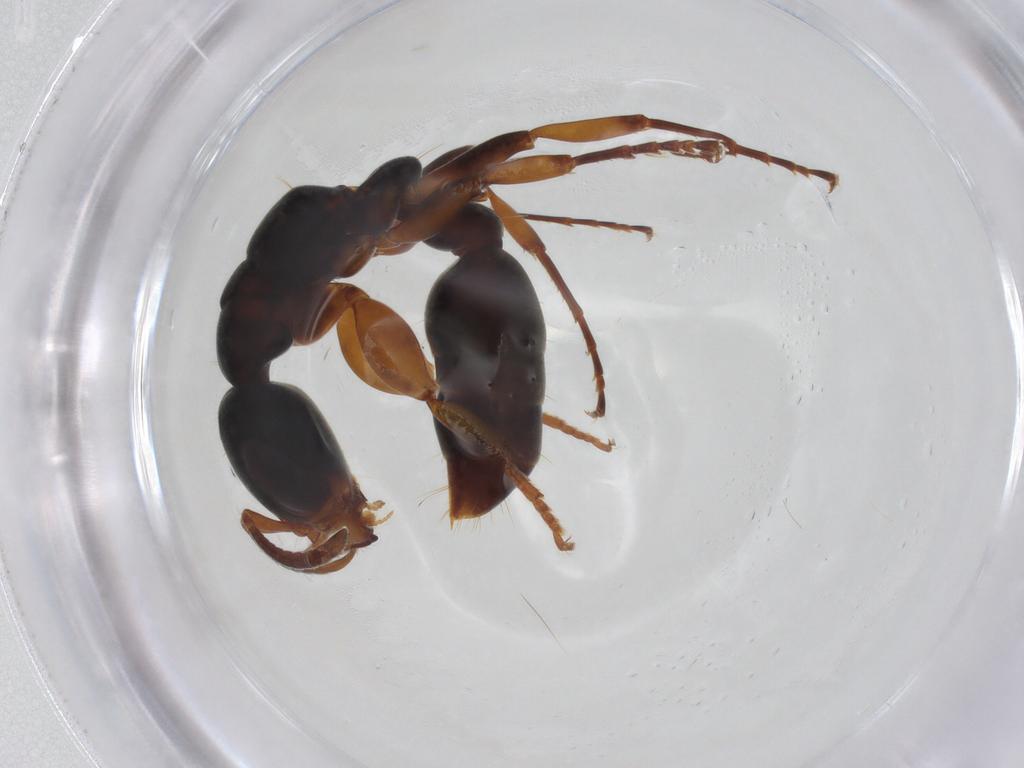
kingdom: Animalia
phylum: Arthropoda
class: Insecta
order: Hymenoptera
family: Formicidae
